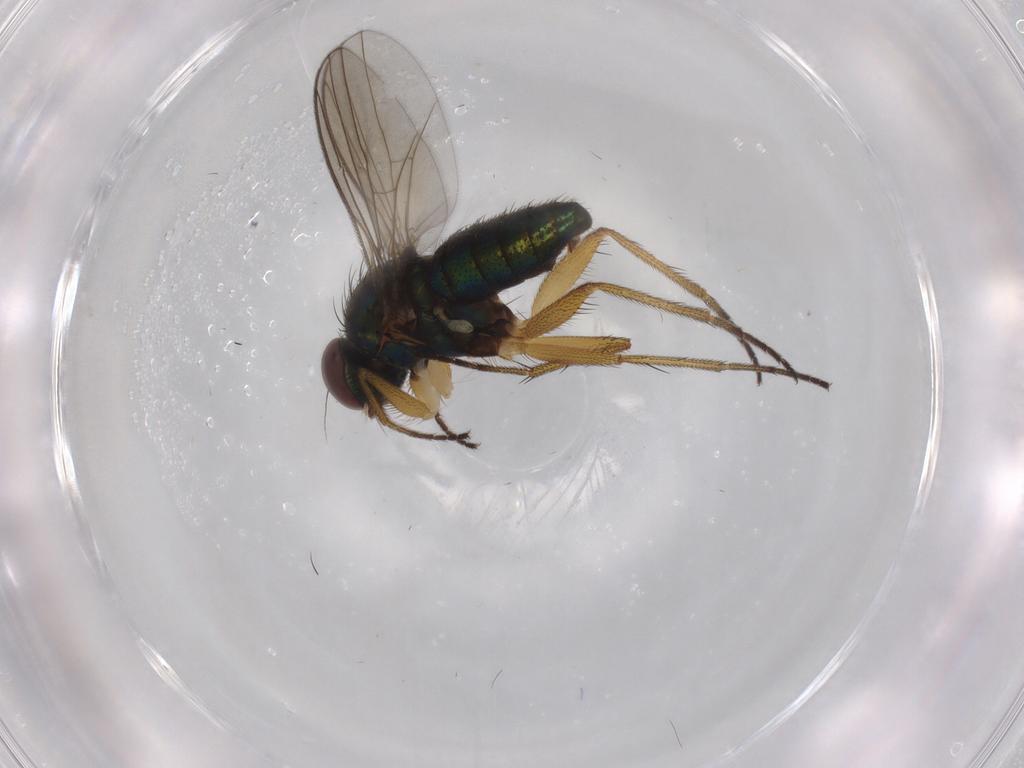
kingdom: Animalia
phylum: Arthropoda
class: Insecta
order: Diptera
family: Dolichopodidae
